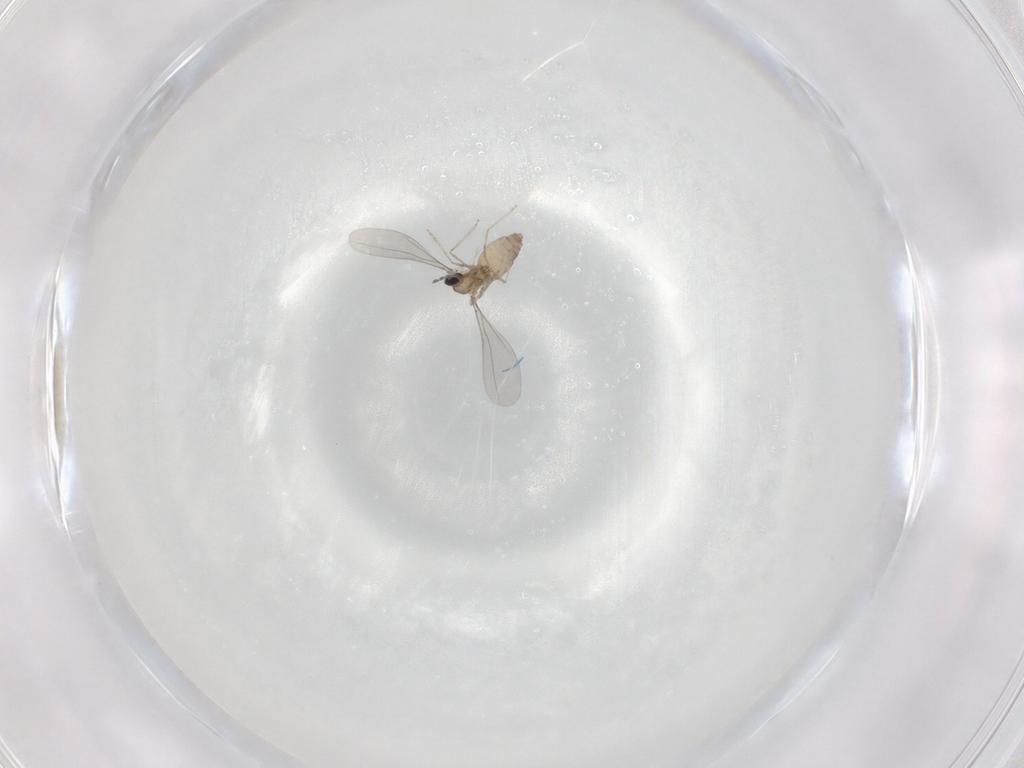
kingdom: Animalia
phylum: Arthropoda
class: Insecta
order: Diptera
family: Cecidomyiidae
